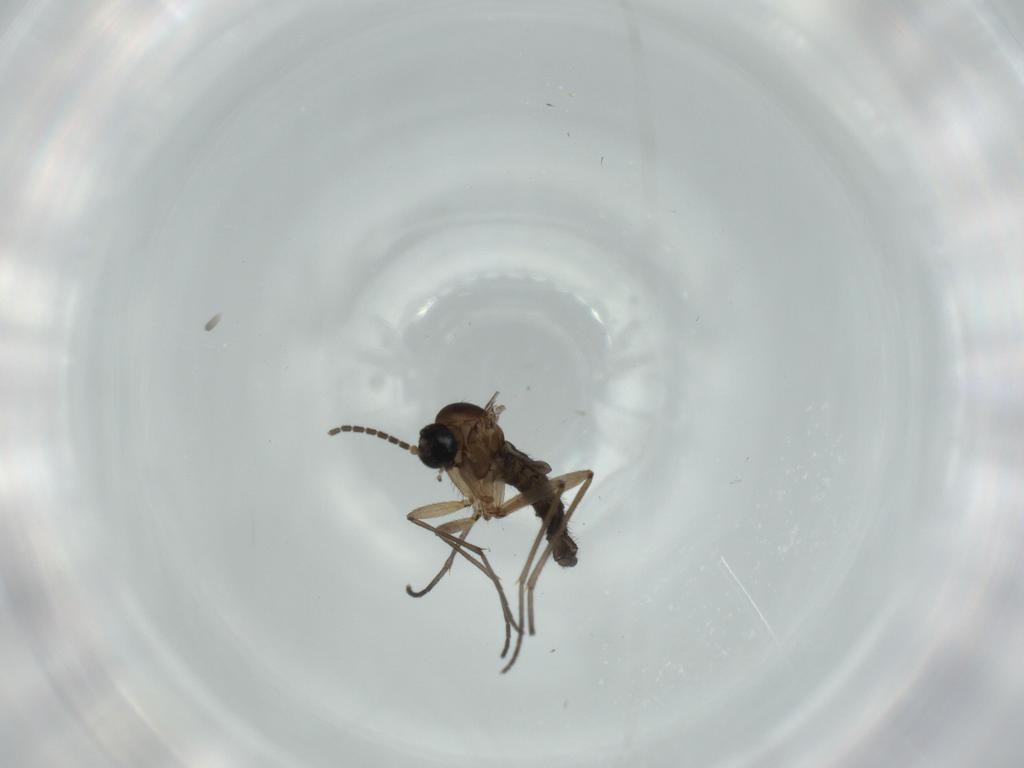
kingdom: Animalia
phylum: Arthropoda
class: Insecta
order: Diptera
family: Sciaridae
